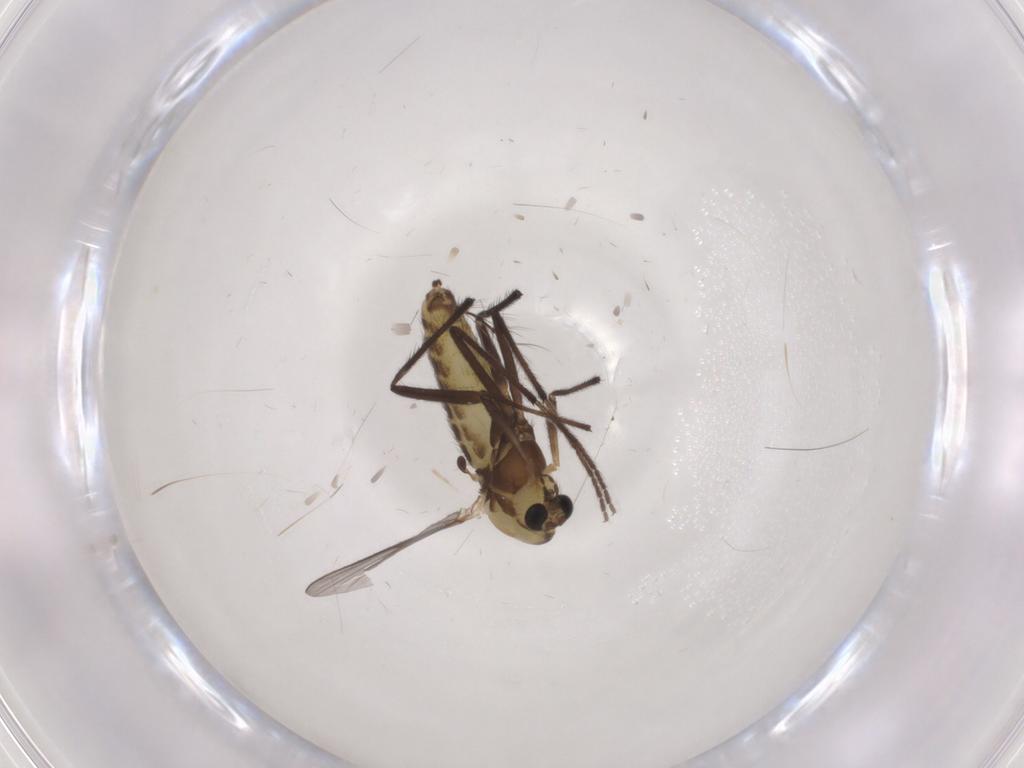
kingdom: Animalia
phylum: Arthropoda
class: Insecta
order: Diptera
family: Chironomidae
